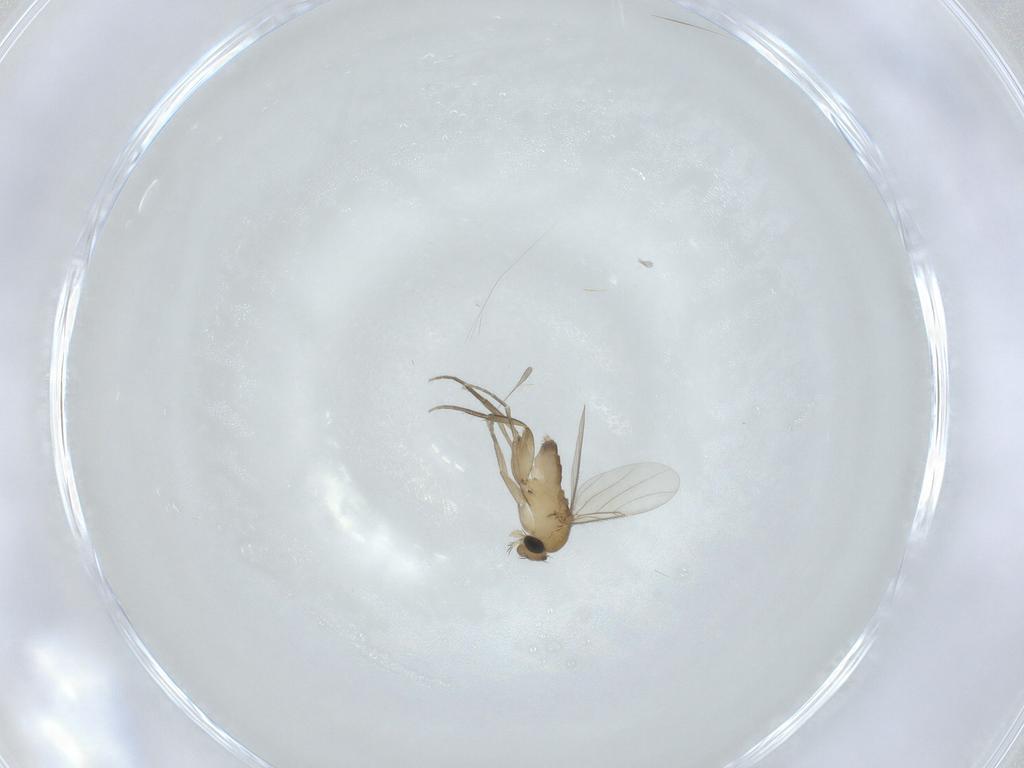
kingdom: Animalia
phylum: Arthropoda
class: Insecta
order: Diptera
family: Phoridae
